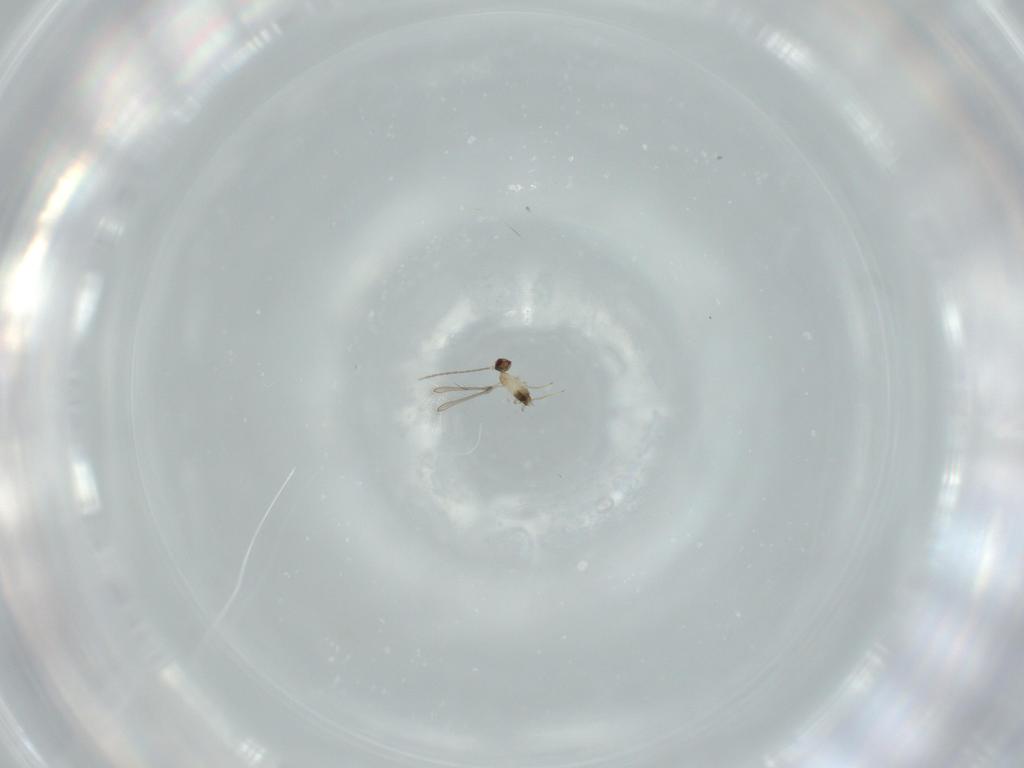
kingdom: Animalia
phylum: Arthropoda
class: Insecta
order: Hymenoptera
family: Mymaridae
